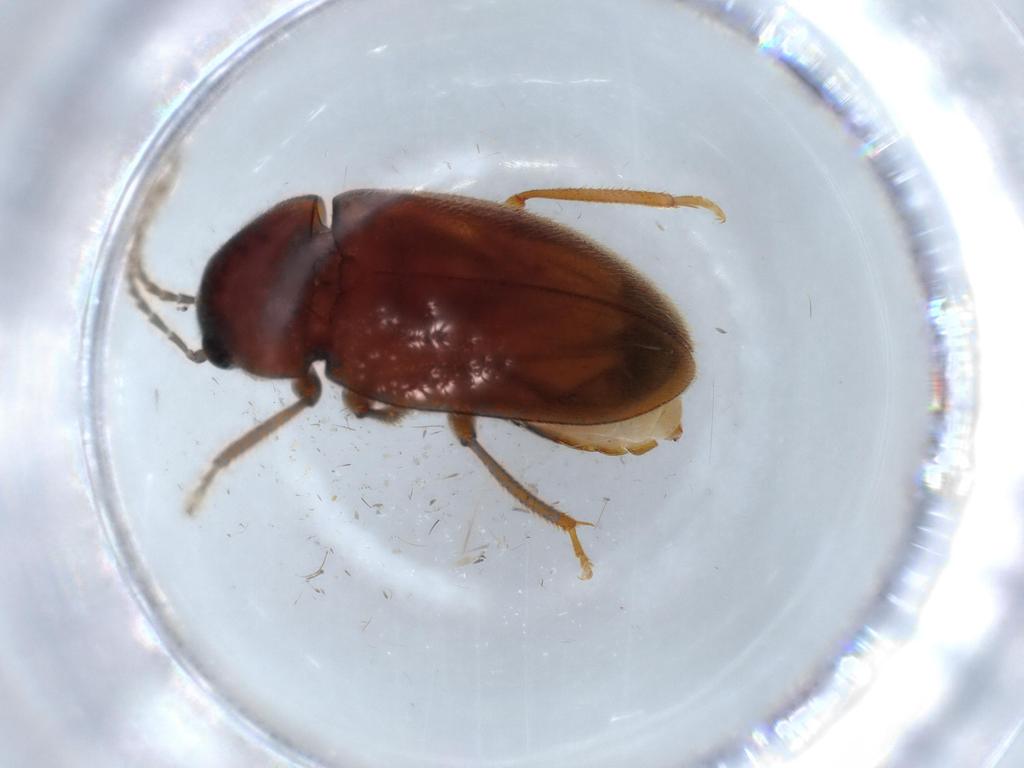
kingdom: Animalia
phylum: Arthropoda
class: Insecta
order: Coleoptera
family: Ptilodactylidae
